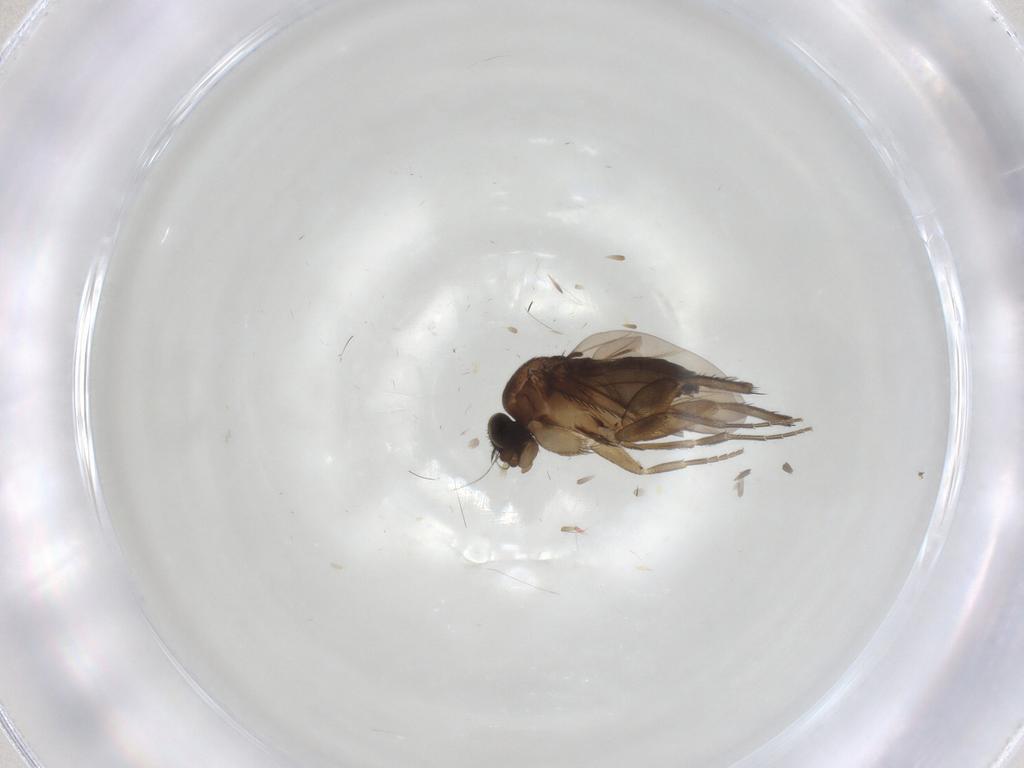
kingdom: Animalia
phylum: Arthropoda
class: Insecta
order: Diptera
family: Phoridae
